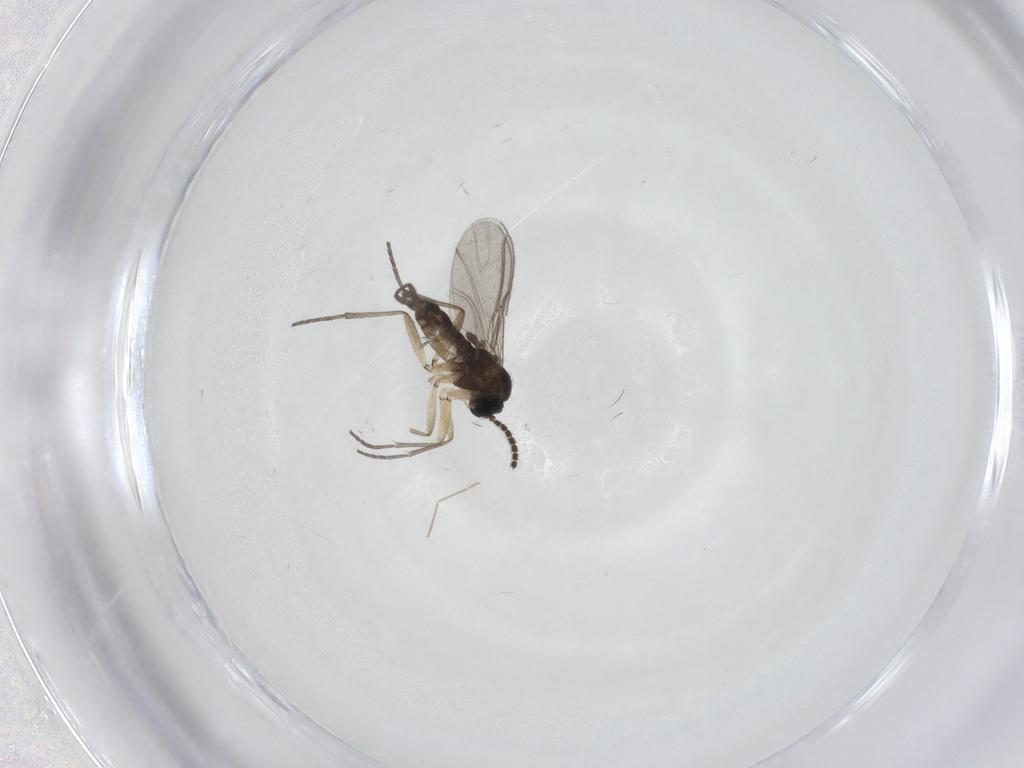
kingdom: Animalia
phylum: Arthropoda
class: Insecta
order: Diptera
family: Sciaridae
